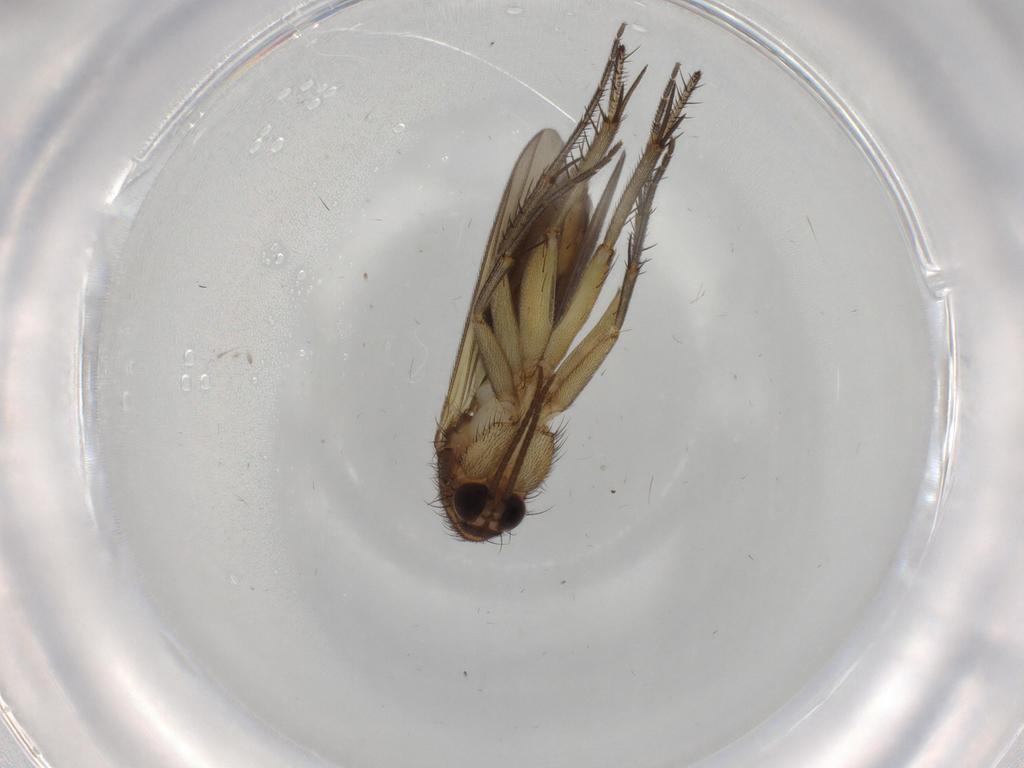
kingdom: Animalia
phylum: Arthropoda
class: Insecta
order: Diptera
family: Mycetophilidae
